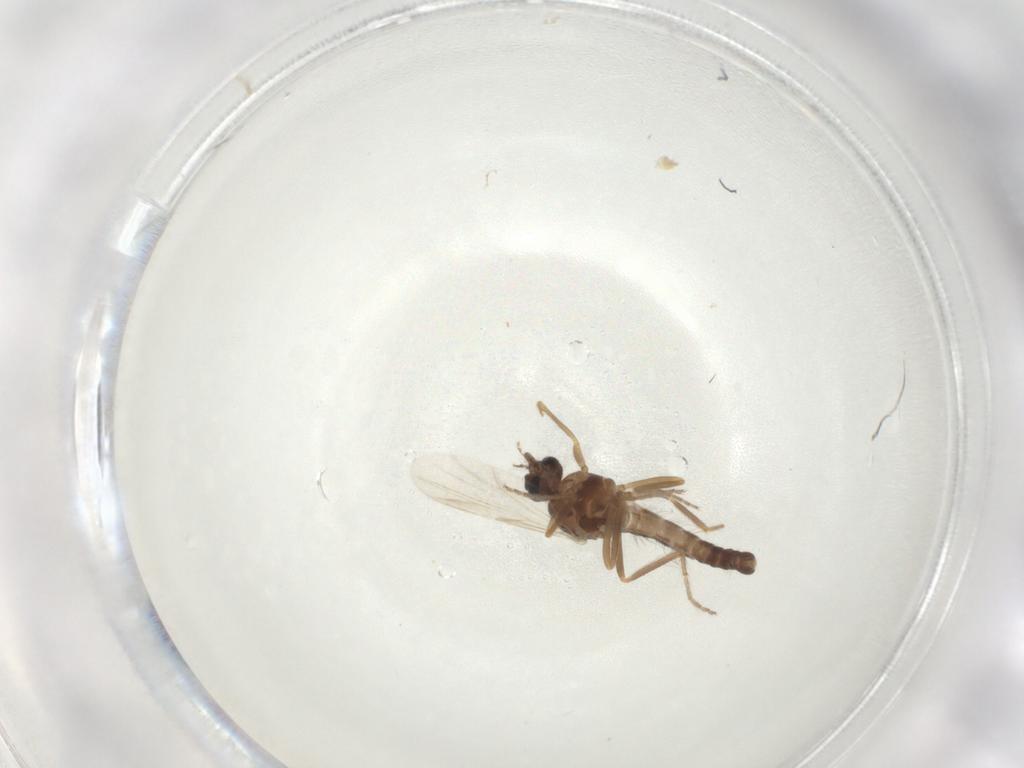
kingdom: Animalia
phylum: Arthropoda
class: Insecta
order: Diptera
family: Ceratopogonidae
